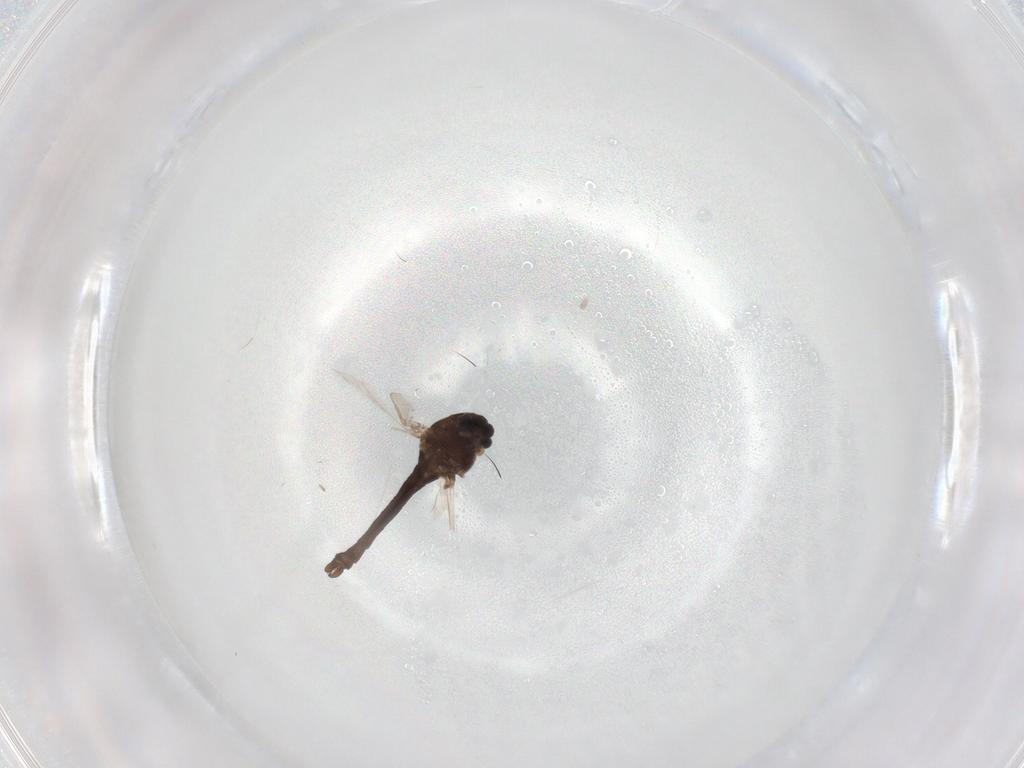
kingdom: Animalia
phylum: Arthropoda
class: Insecta
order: Diptera
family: Chironomidae
